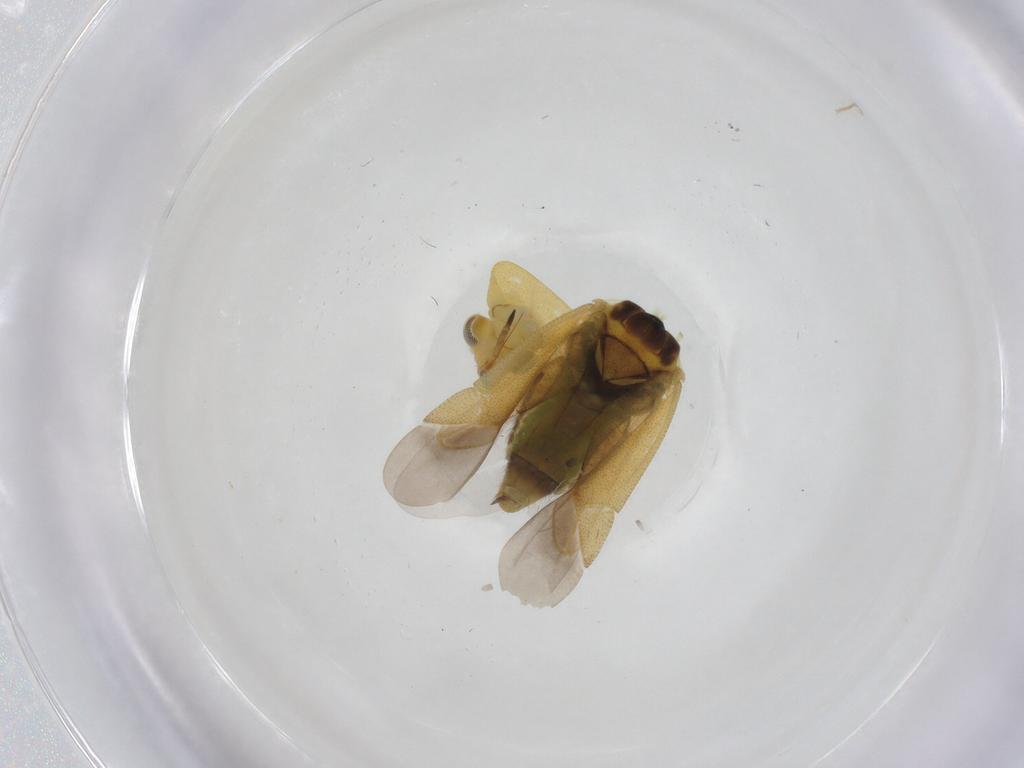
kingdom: Animalia
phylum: Arthropoda
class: Insecta
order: Hemiptera
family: Miridae
